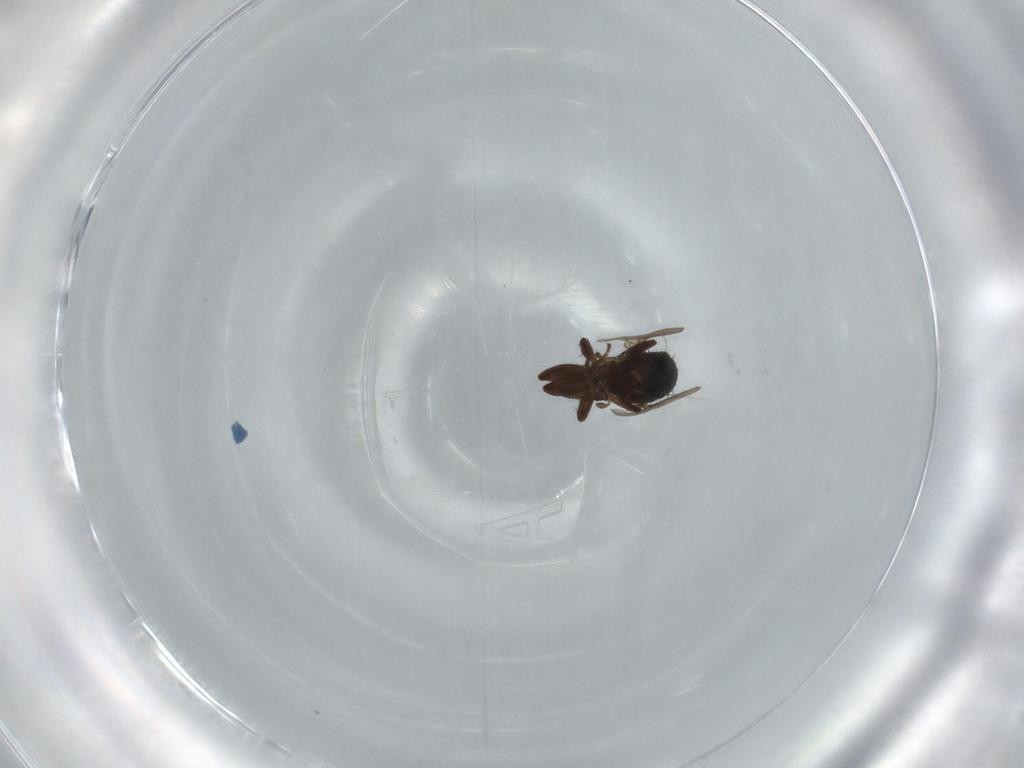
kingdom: Animalia
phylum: Arthropoda
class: Insecta
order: Diptera
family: Sphaeroceridae
